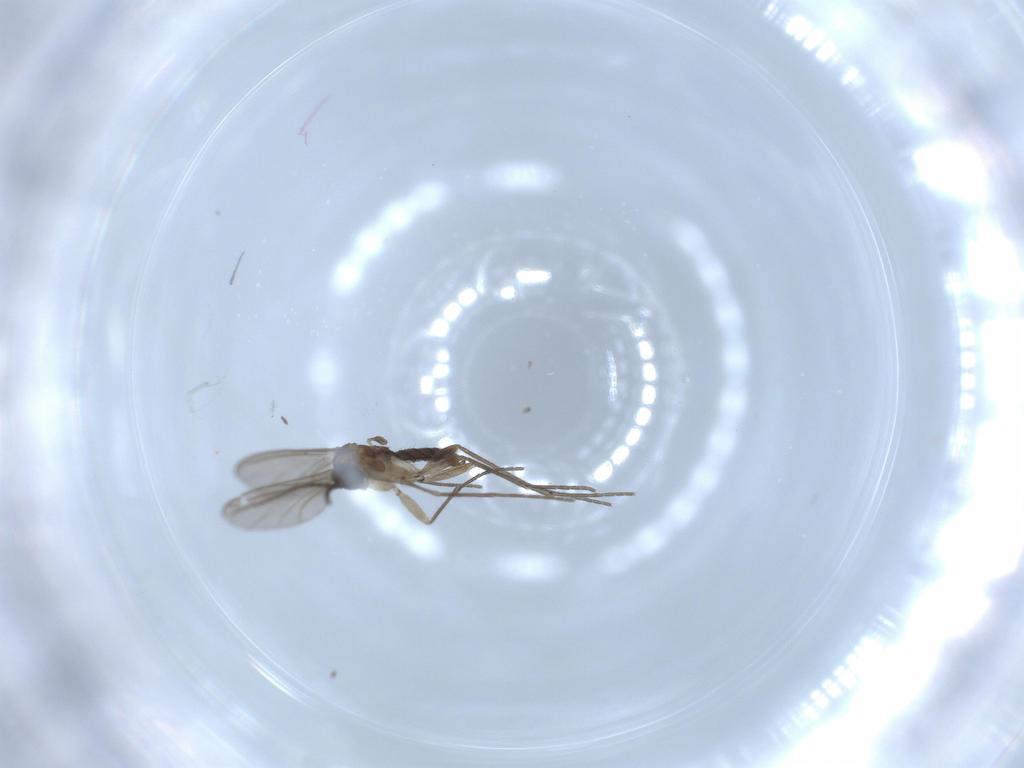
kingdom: Animalia
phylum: Arthropoda
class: Insecta
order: Diptera
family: Sciaridae
